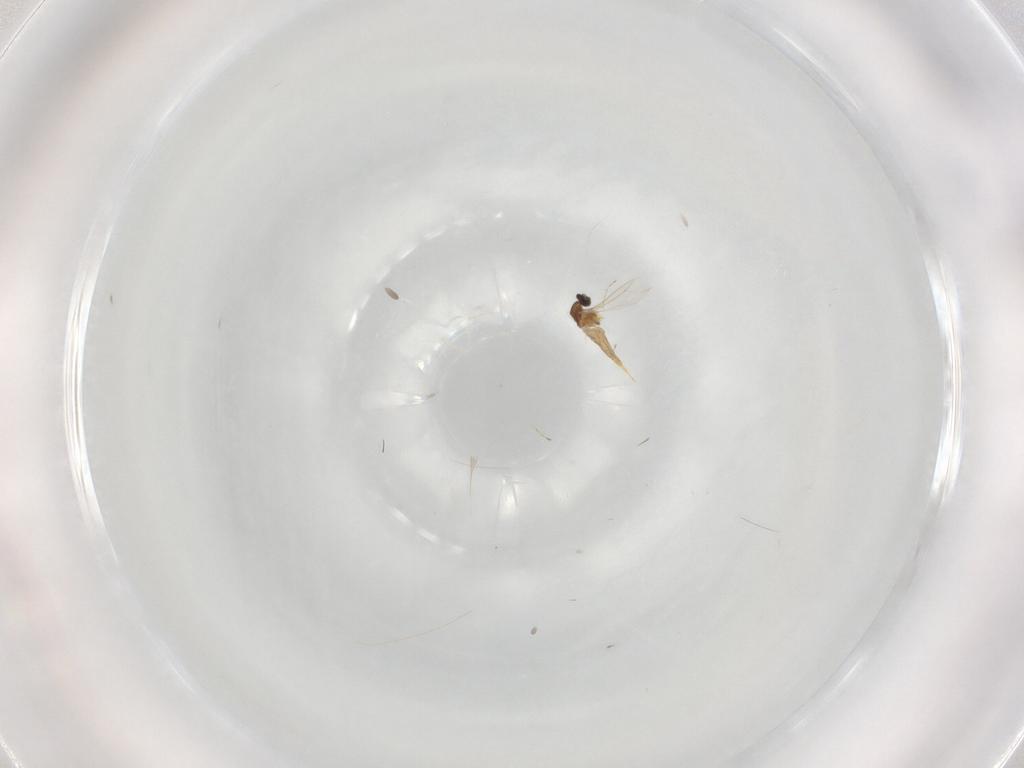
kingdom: Animalia
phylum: Arthropoda
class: Insecta
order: Diptera
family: Cecidomyiidae
